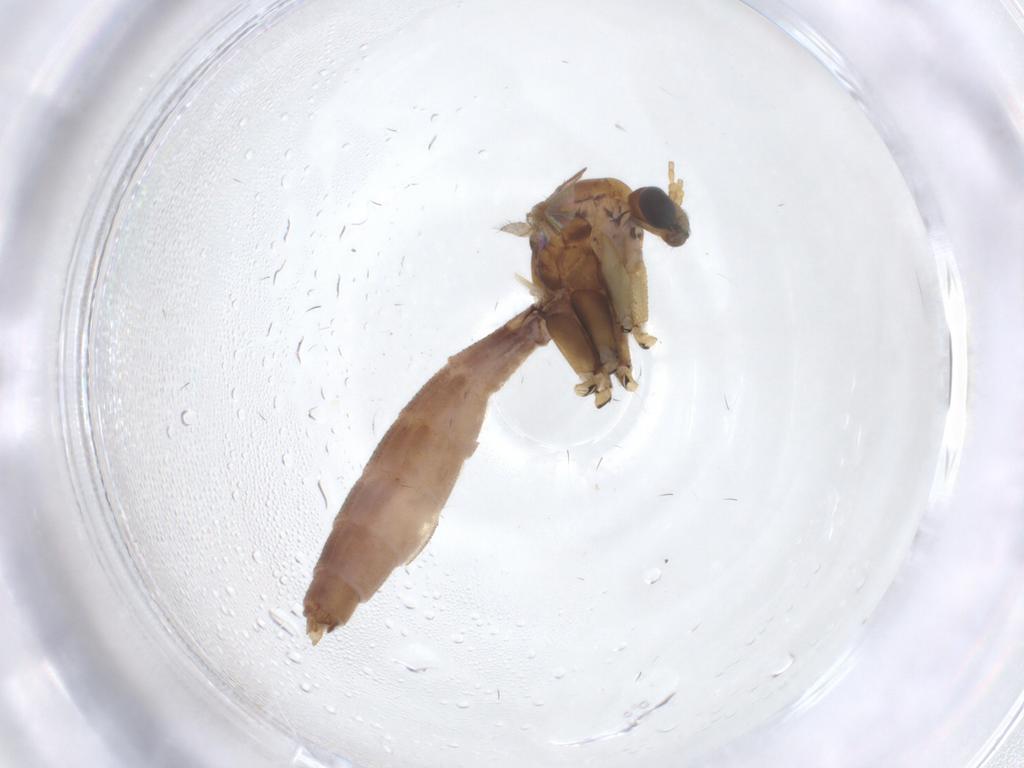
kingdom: Animalia
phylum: Arthropoda
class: Insecta
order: Diptera
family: Mycetophilidae
